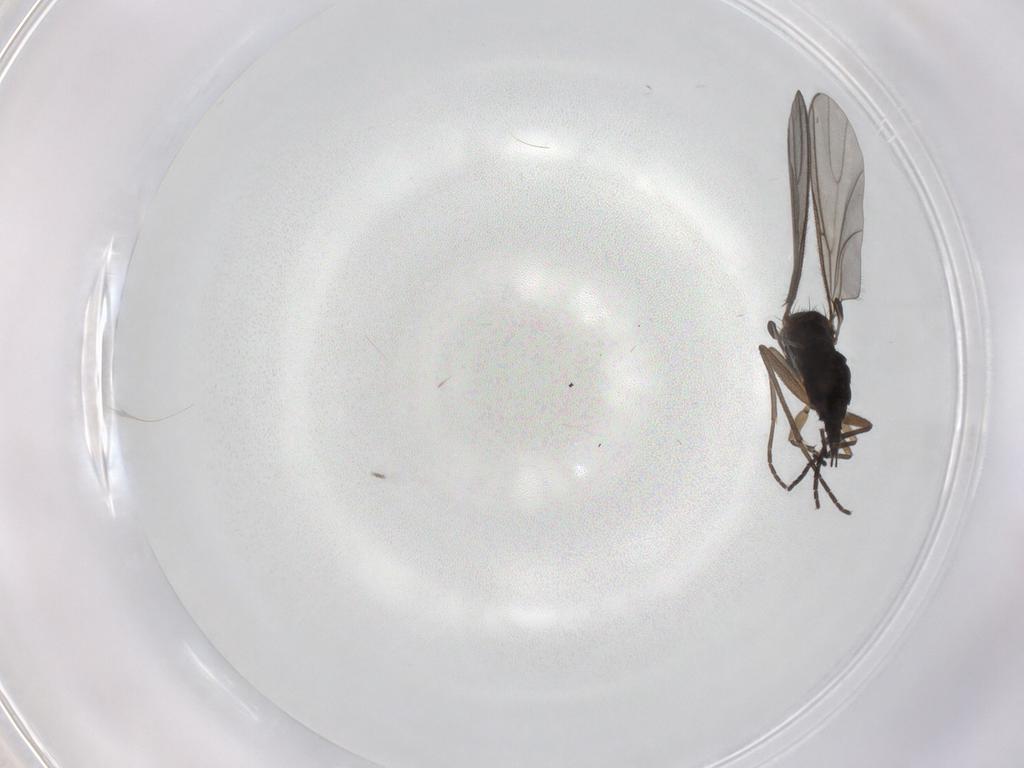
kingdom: Animalia
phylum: Arthropoda
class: Insecta
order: Diptera
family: Sciaridae
